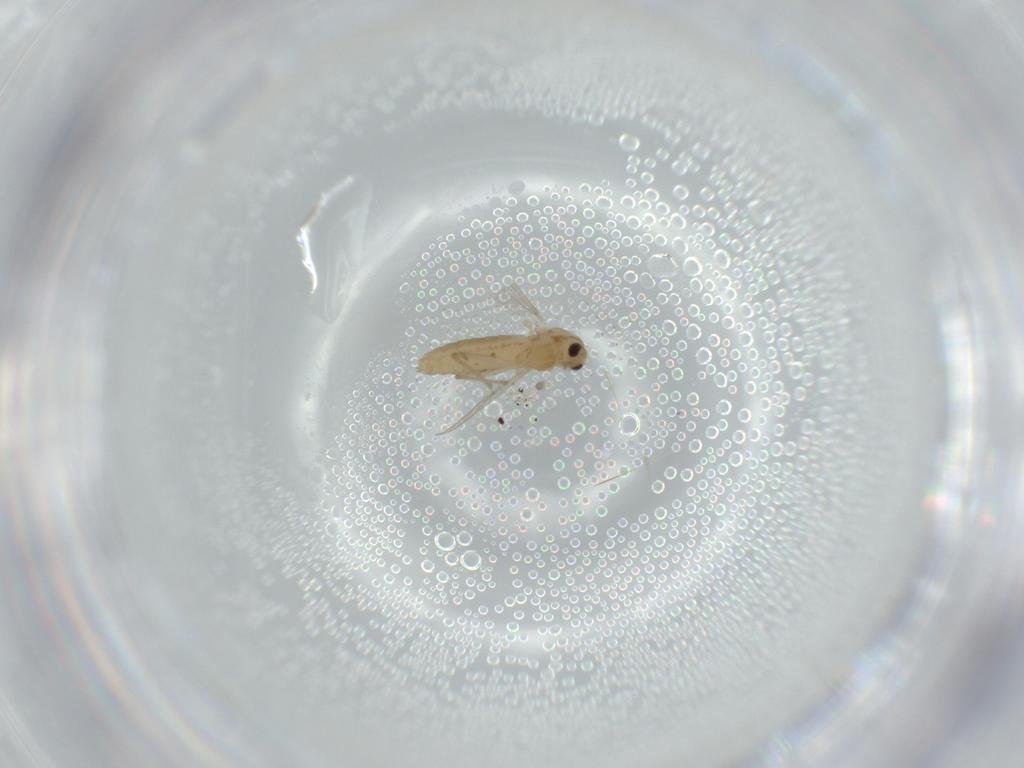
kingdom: Animalia
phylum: Arthropoda
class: Insecta
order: Diptera
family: Chironomidae
